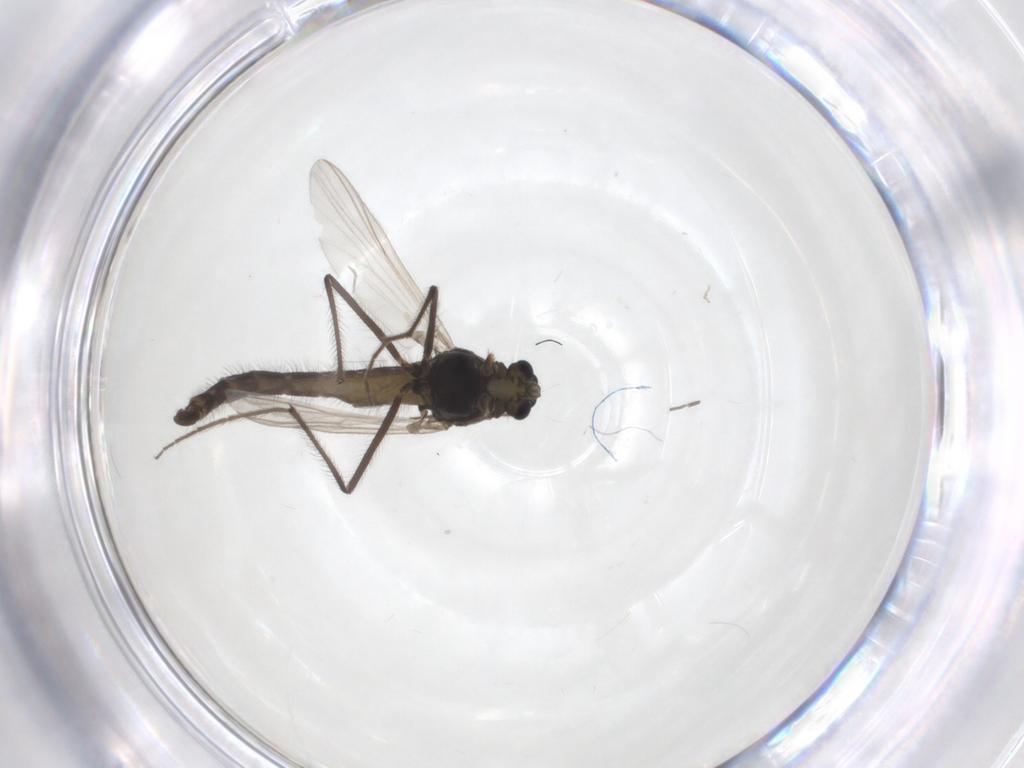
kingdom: Animalia
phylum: Arthropoda
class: Insecta
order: Diptera
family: Chironomidae
